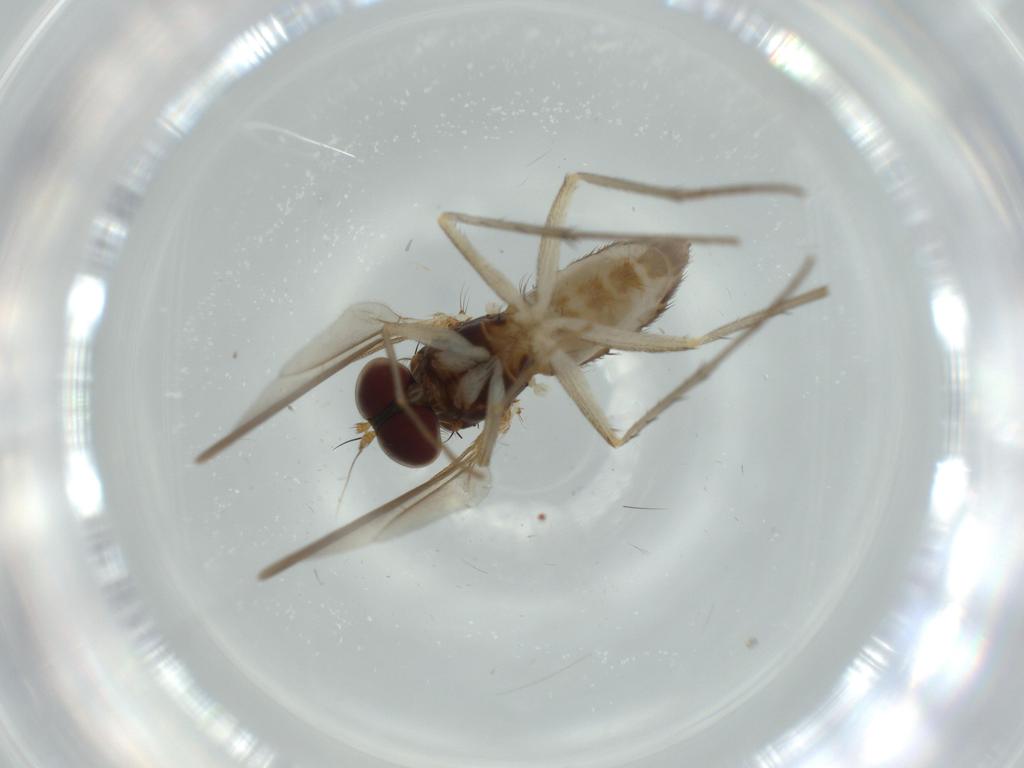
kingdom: Animalia
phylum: Arthropoda
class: Insecta
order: Diptera
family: Dolichopodidae
